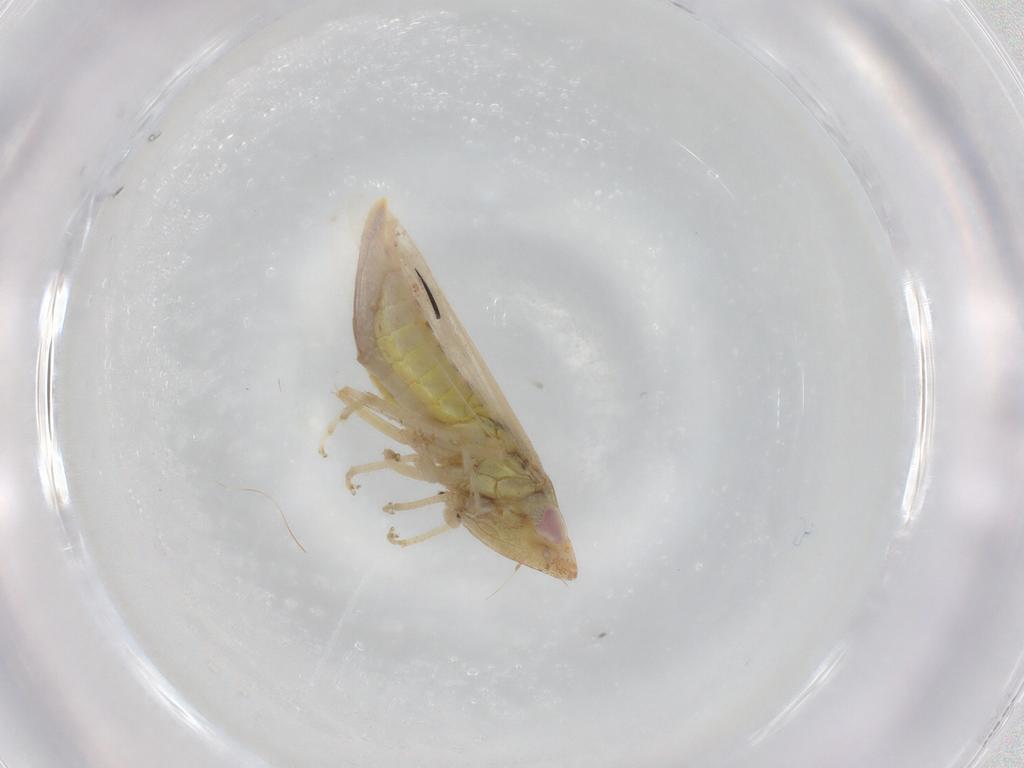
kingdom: Animalia
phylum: Arthropoda
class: Insecta
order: Hemiptera
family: Cicadellidae
